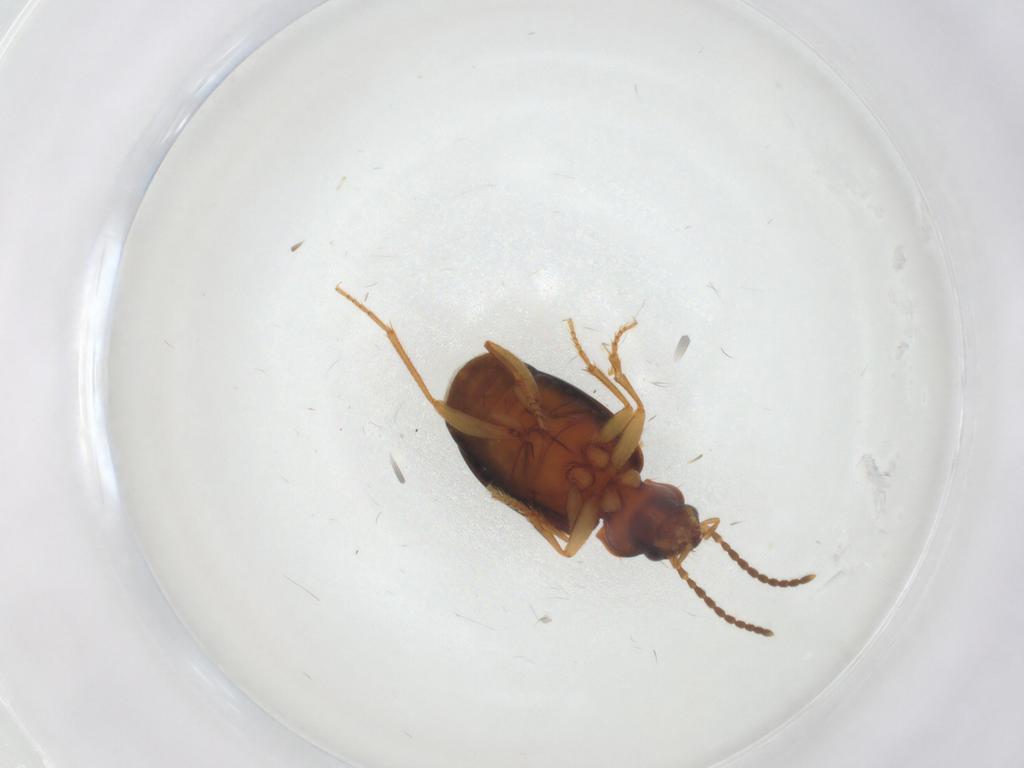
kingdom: Animalia
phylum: Arthropoda
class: Insecta
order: Coleoptera
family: Carabidae
